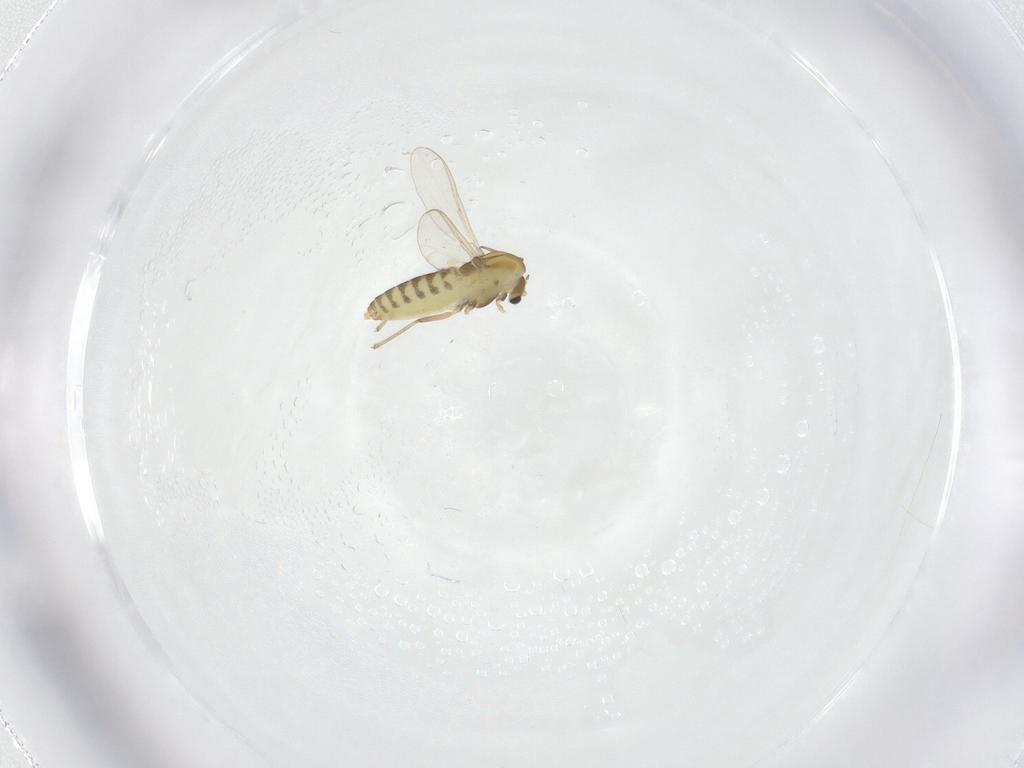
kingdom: Animalia
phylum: Arthropoda
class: Insecta
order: Diptera
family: Chironomidae
